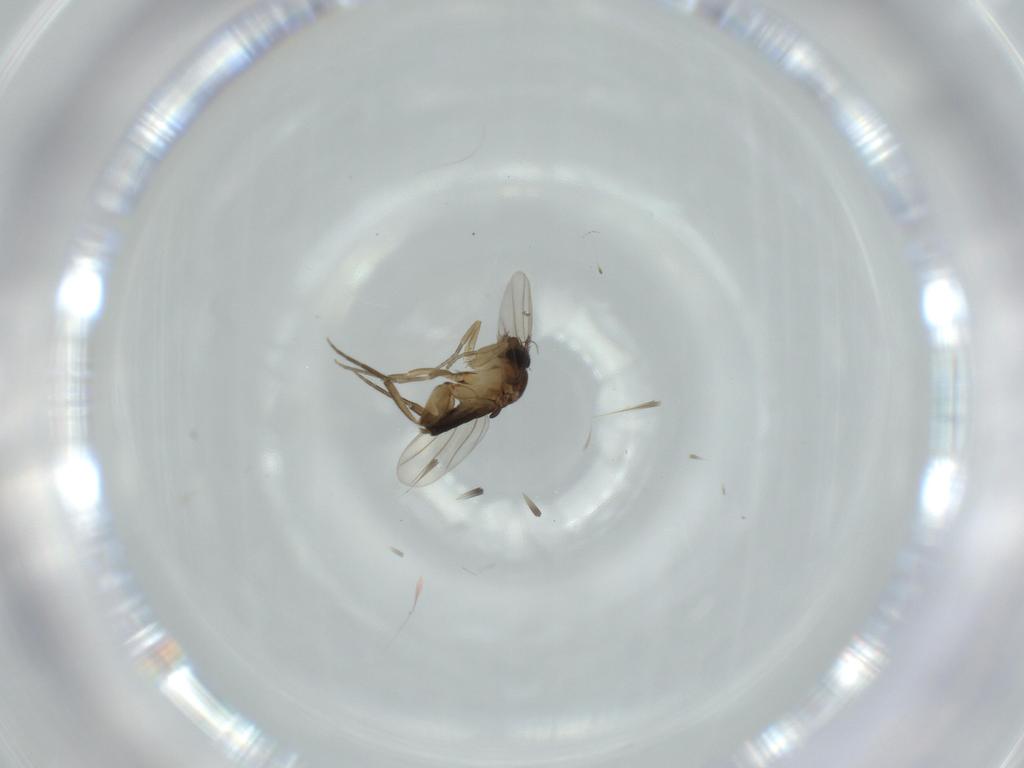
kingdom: Animalia
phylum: Arthropoda
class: Insecta
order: Diptera
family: Phoridae
